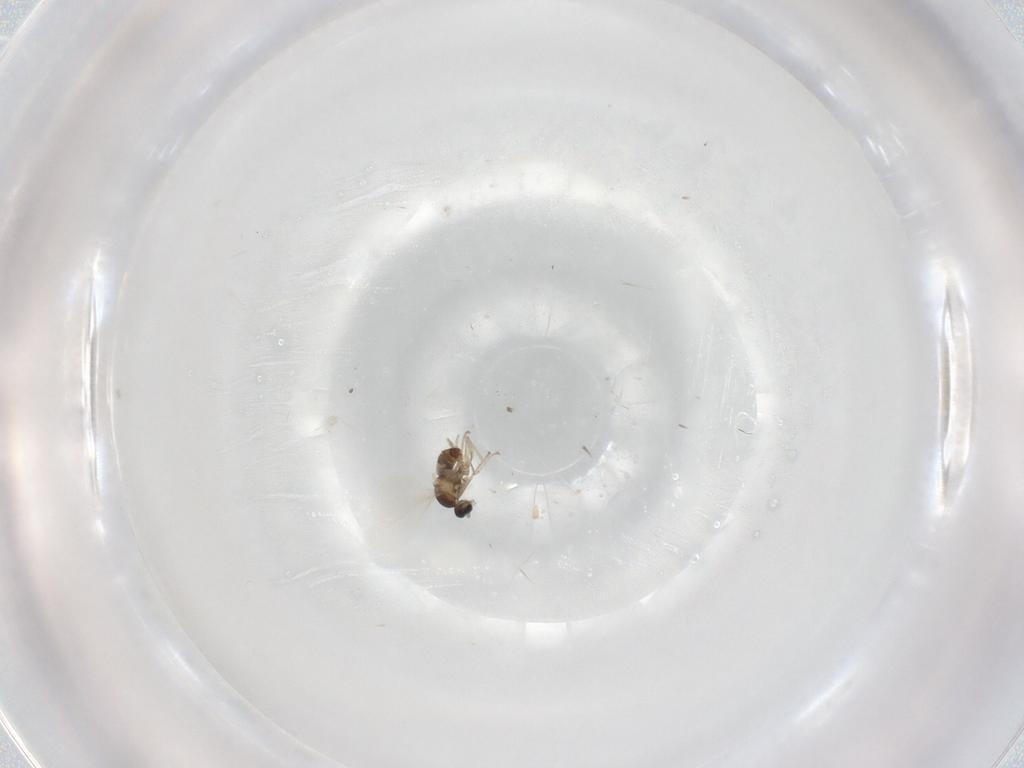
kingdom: Animalia
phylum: Arthropoda
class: Insecta
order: Diptera
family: Cecidomyiidae
